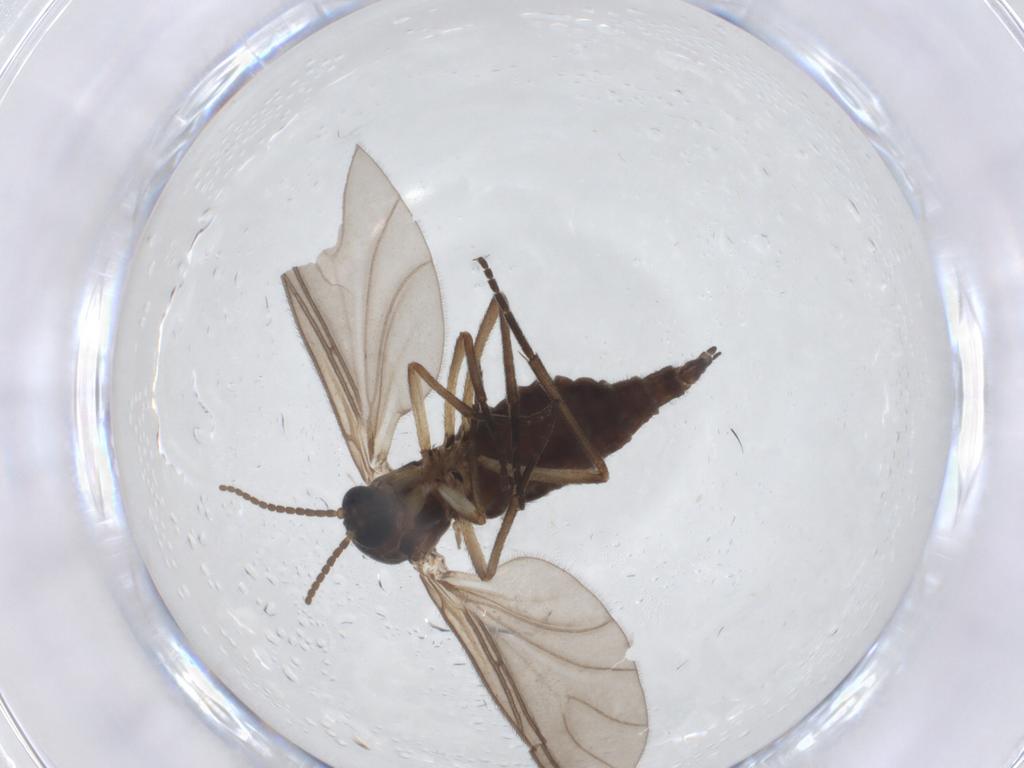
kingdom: Animalia
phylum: Arthropoda
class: Insecta
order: Diptera
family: Sciaridae
